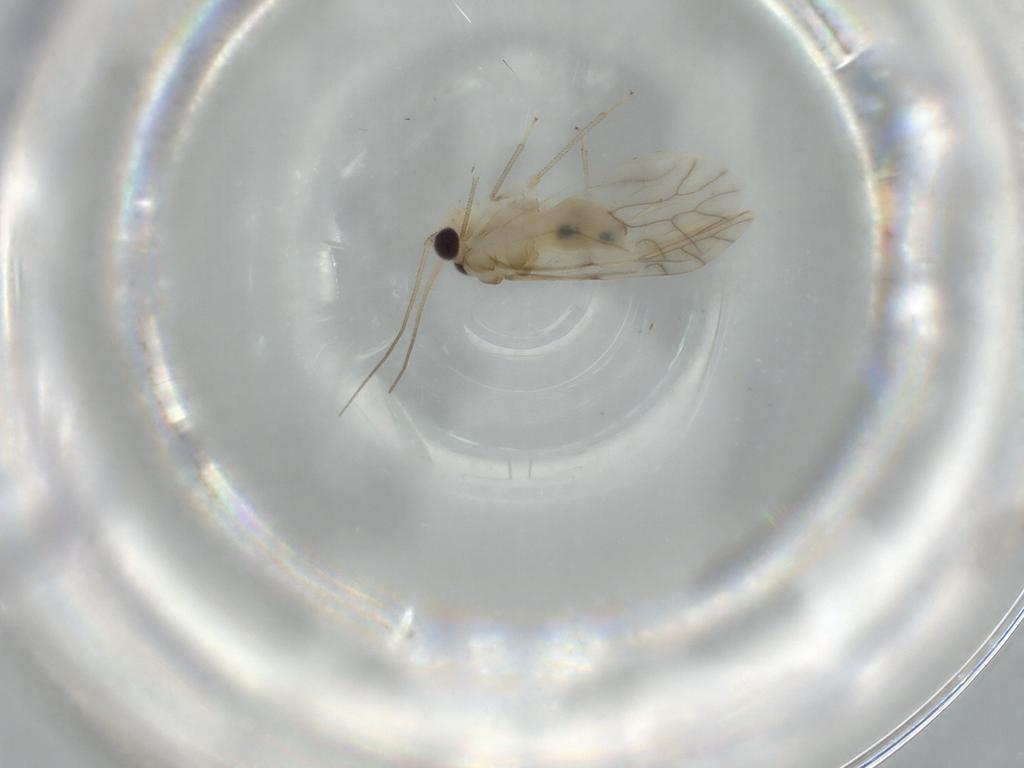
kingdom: Animalia
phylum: Arthropoda
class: Insecta
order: Psocodea
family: Caeciliusidae
